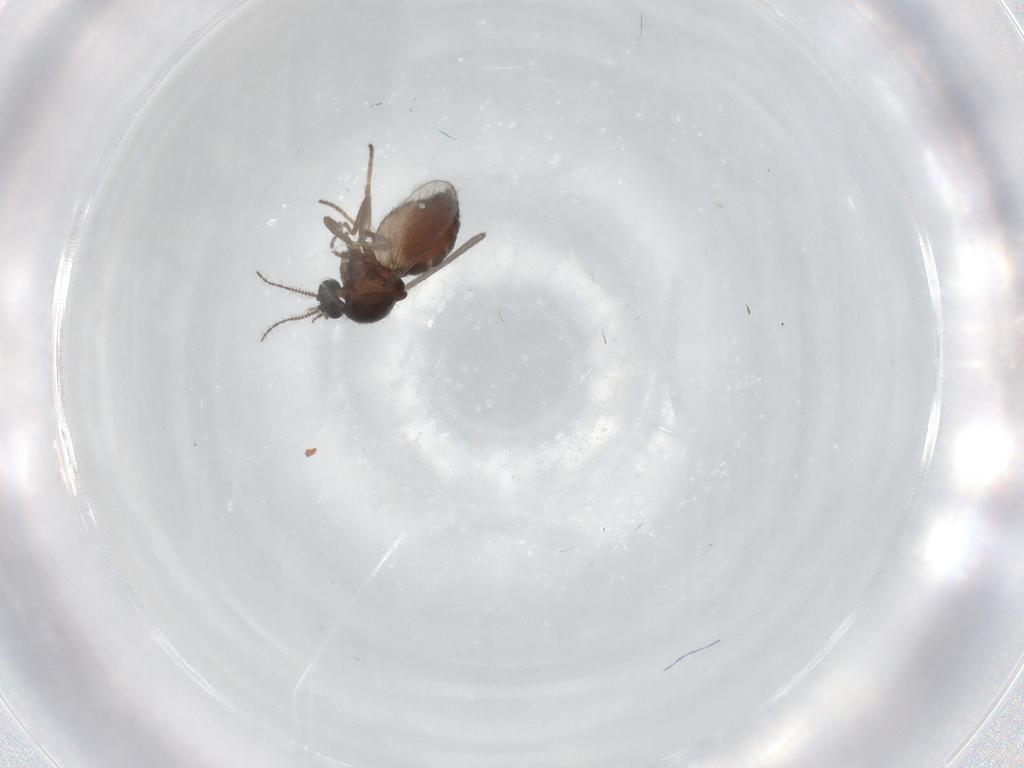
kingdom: Animalia
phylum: Arthropoda
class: Insecta
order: Diptera
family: Ceratopogonidae
